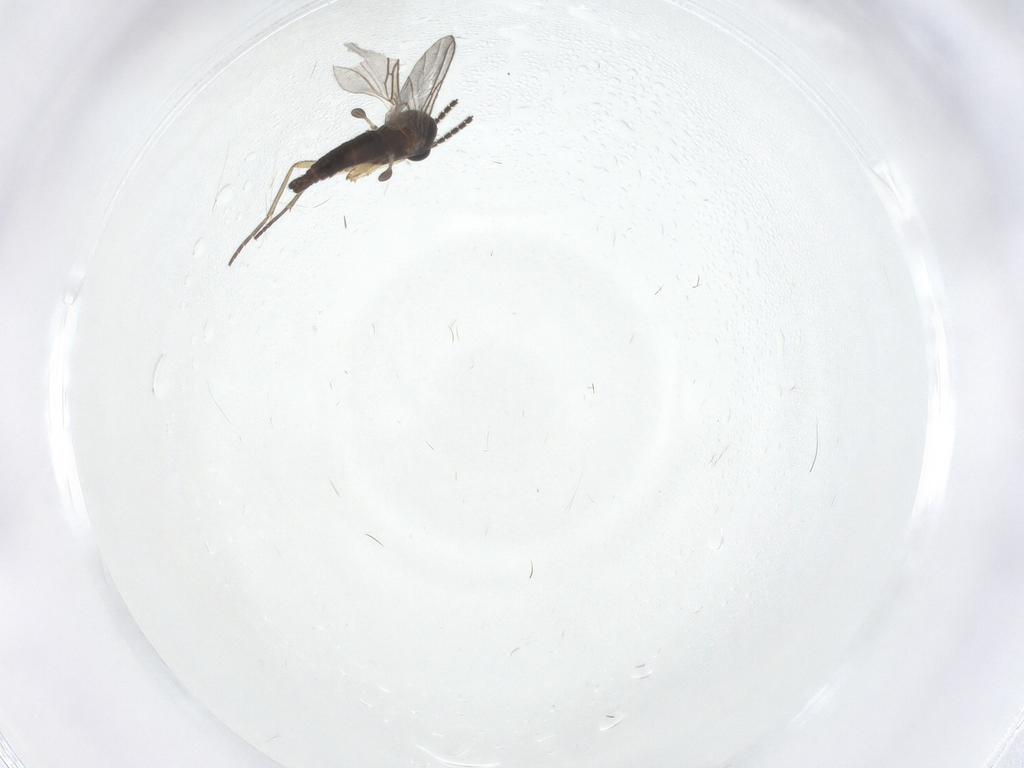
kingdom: Animalia
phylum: Arthropoda
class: Insecta
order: Diptera
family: Sciaridae
